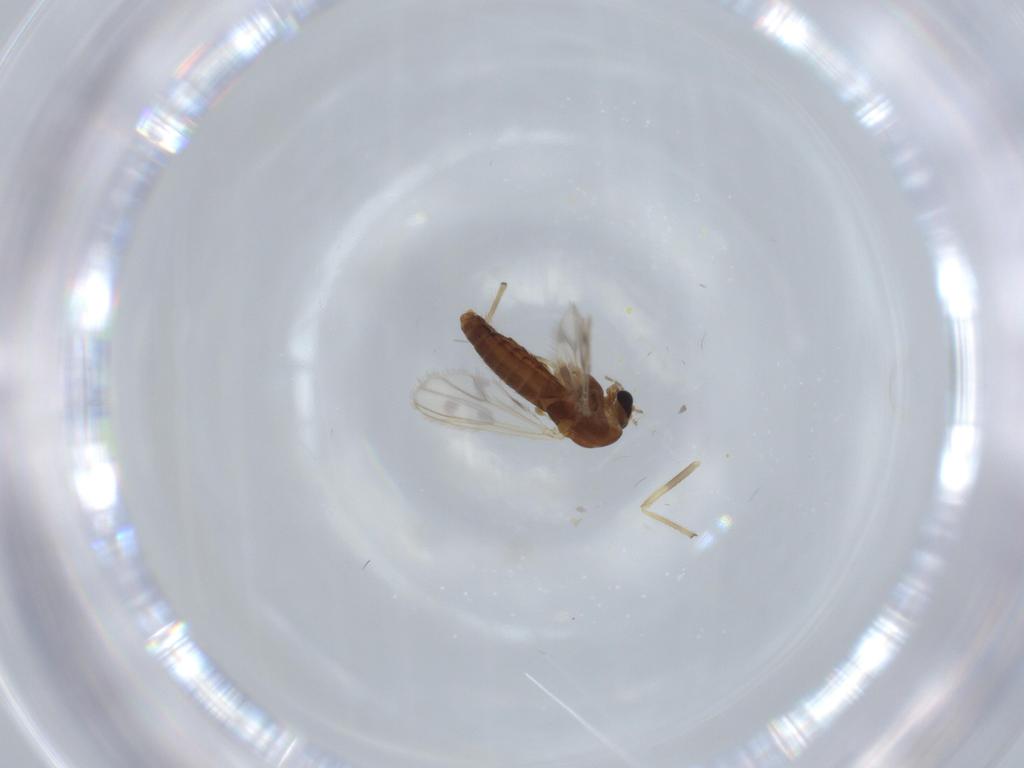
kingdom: Animalia
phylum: Arthropoda
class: Insecta
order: Diptera
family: Chironomidae
